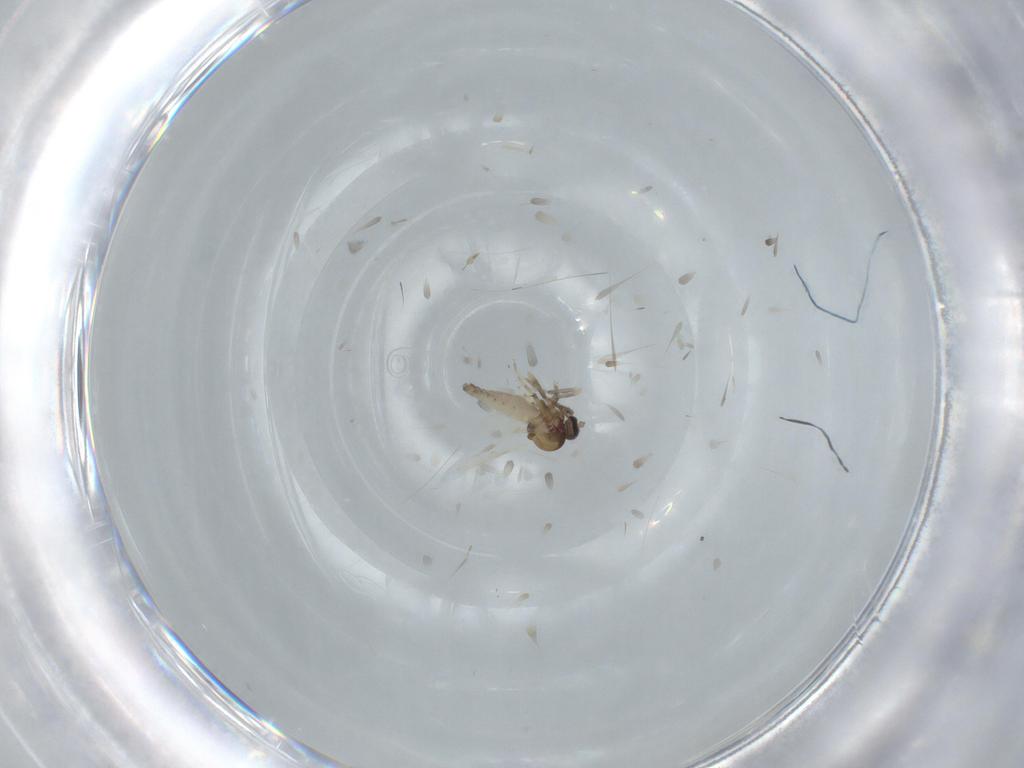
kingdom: Animalia
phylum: Arthropoda
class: Insecta
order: Diptera
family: Ceratopogonidae
